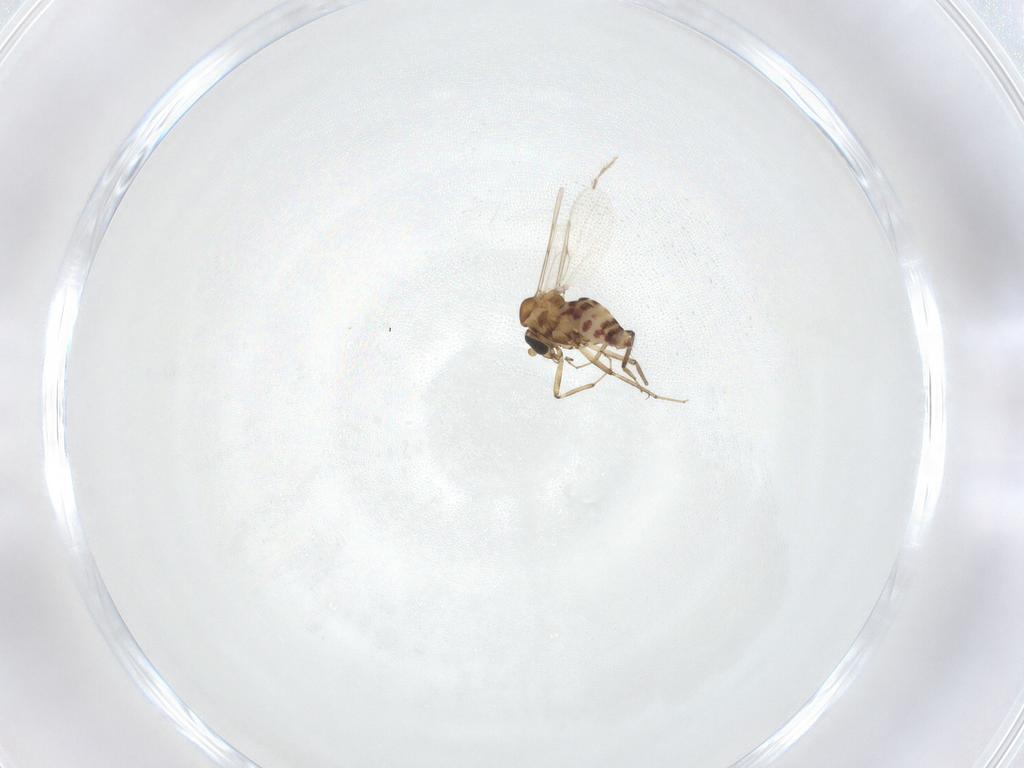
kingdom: Animalia
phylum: Arthropoda
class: Insecta
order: Diptera
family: Ceratopogonidae
